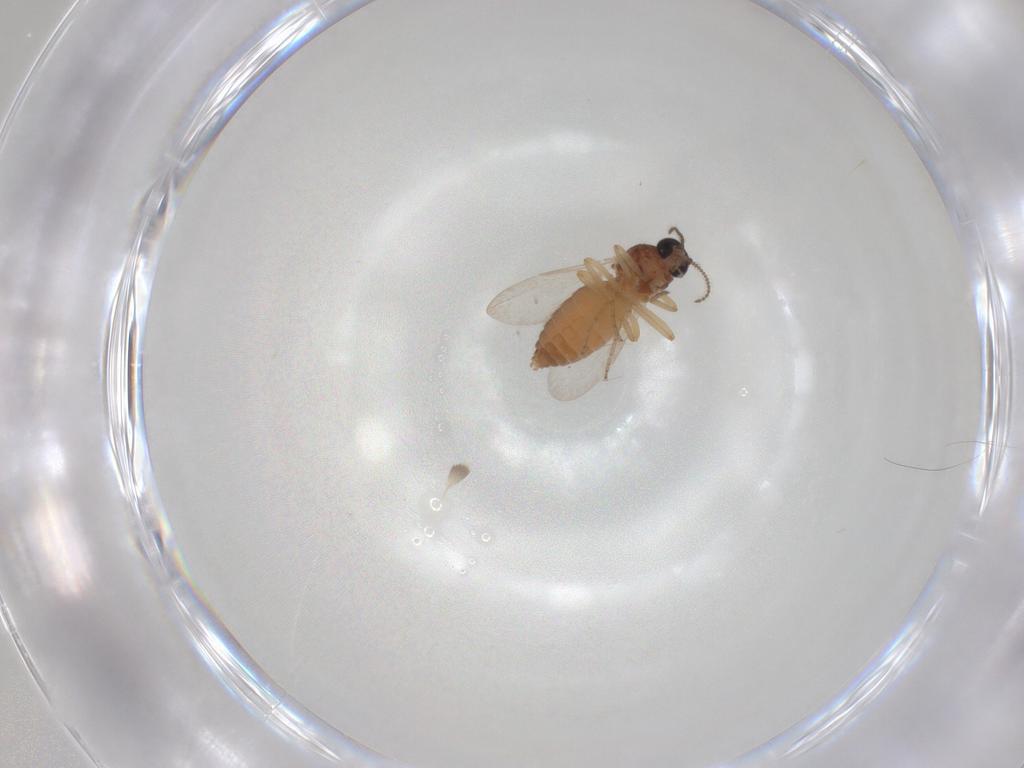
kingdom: Animalia
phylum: Arthropoda
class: Insecta
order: Diptera
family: Ceratopogonidae
